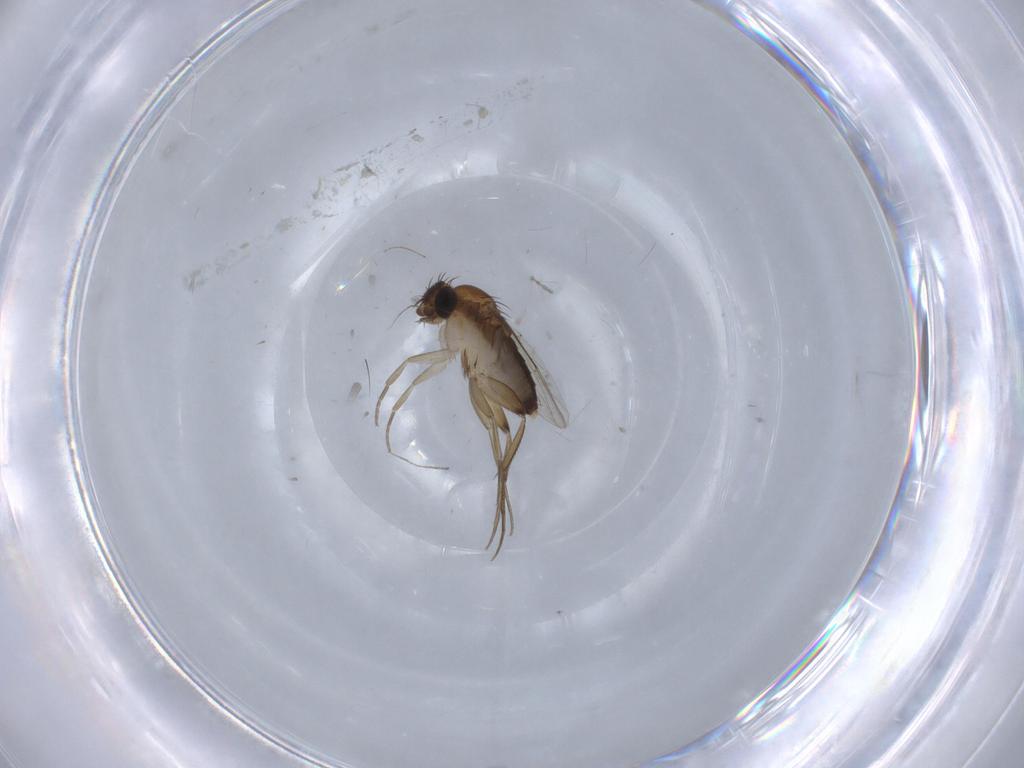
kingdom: Animalia
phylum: Arthropoda
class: Insecta
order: Diptera
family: Phoridae
